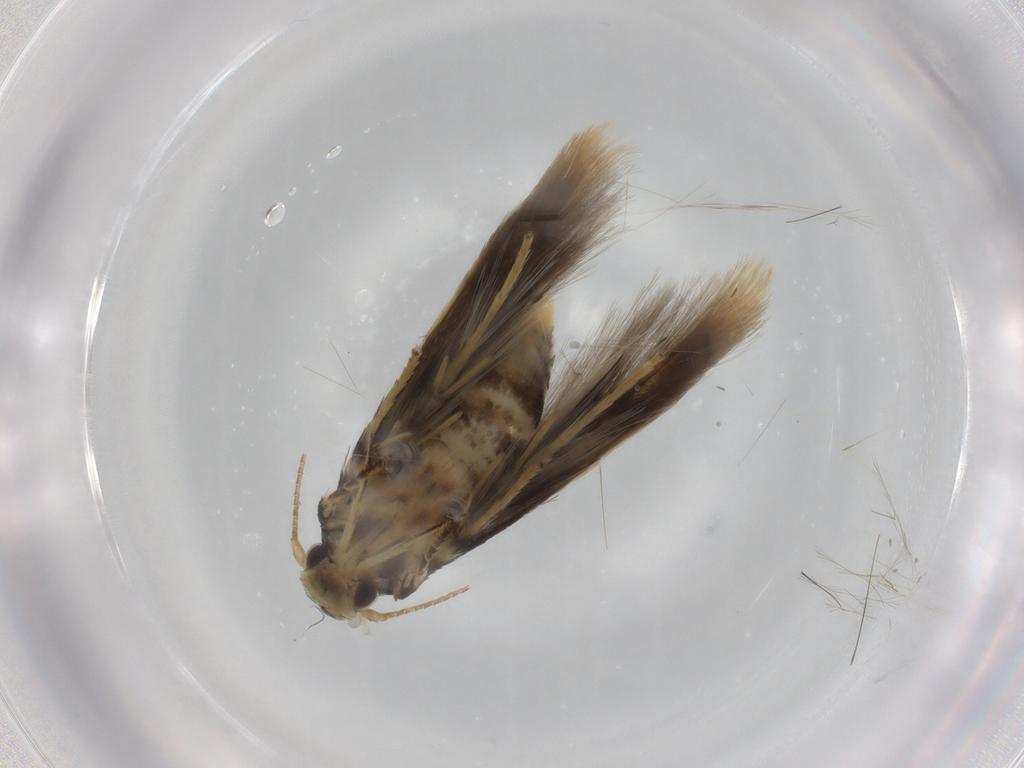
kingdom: Animalia
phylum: Arthropoda
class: Insecta
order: Lepidoptera
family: Oecophoridae
